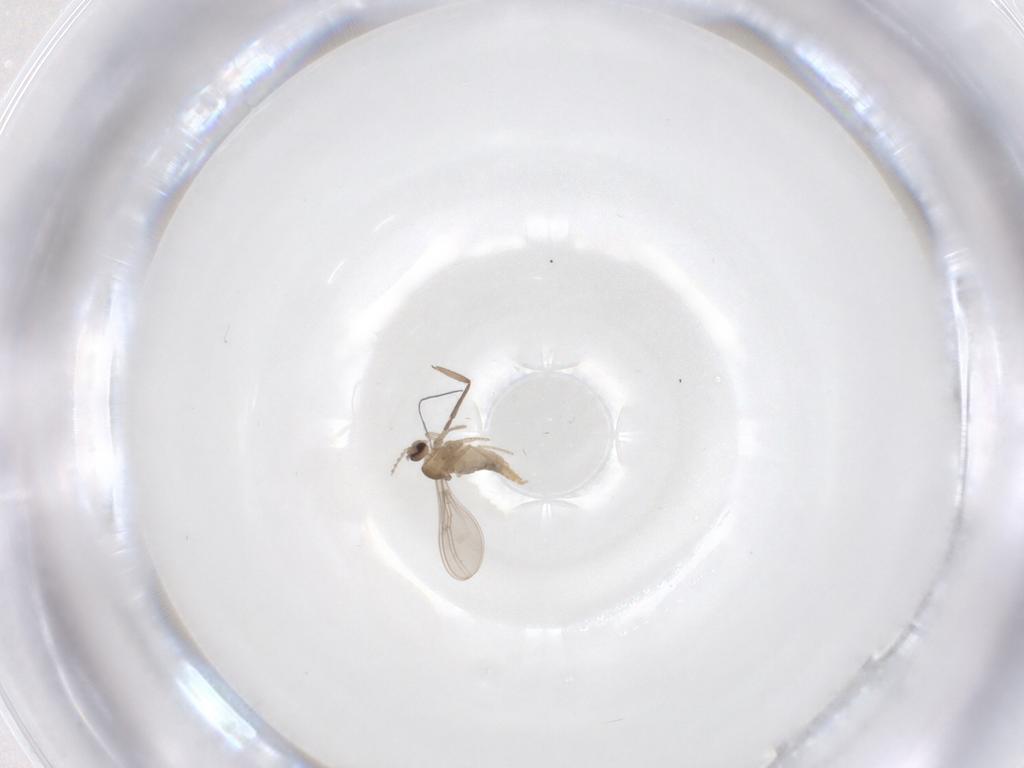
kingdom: Animalia
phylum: Arthropoda
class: Insecta
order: Diptera
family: Cecidomyiidae
